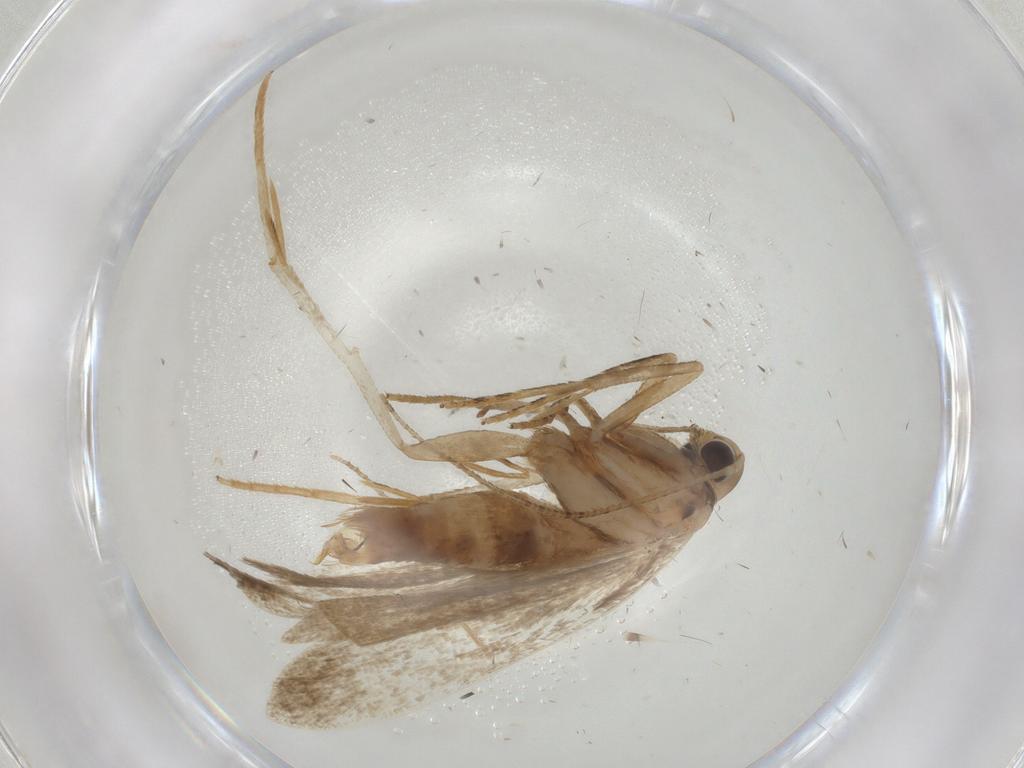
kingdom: Animalia
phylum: Arthropoda
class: Insecta
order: Lepidoptera
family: Gelechiidae
